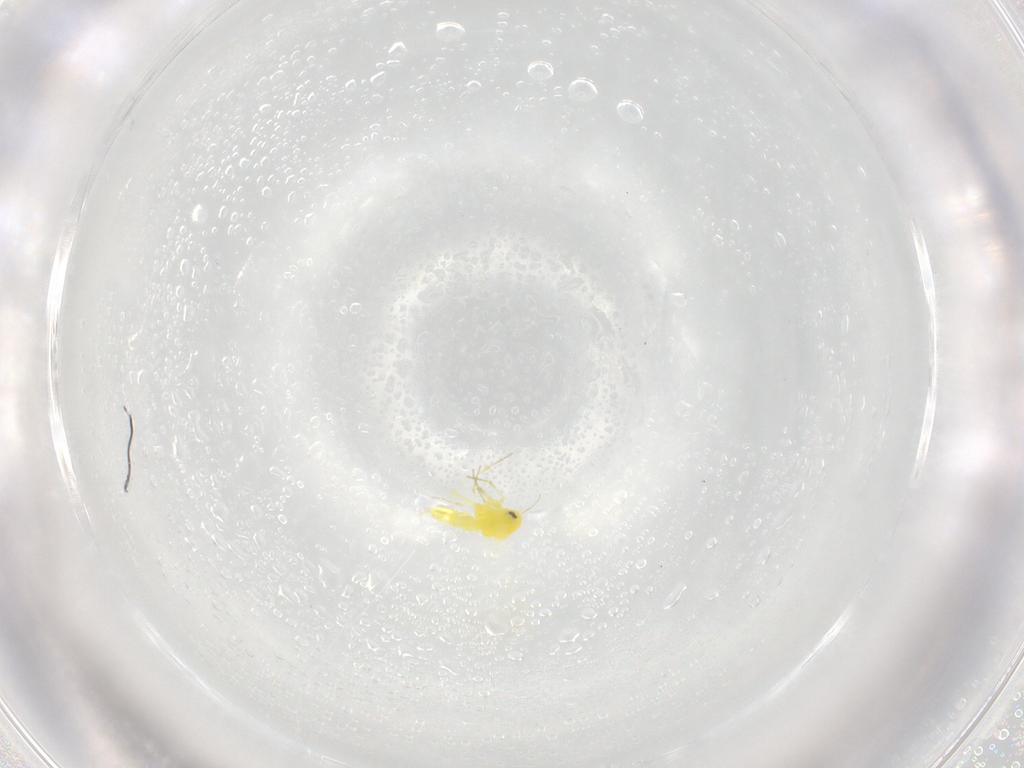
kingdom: Animalia
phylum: Arthropoda
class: Insecta
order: Hemiptera
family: Aleyrodidae
